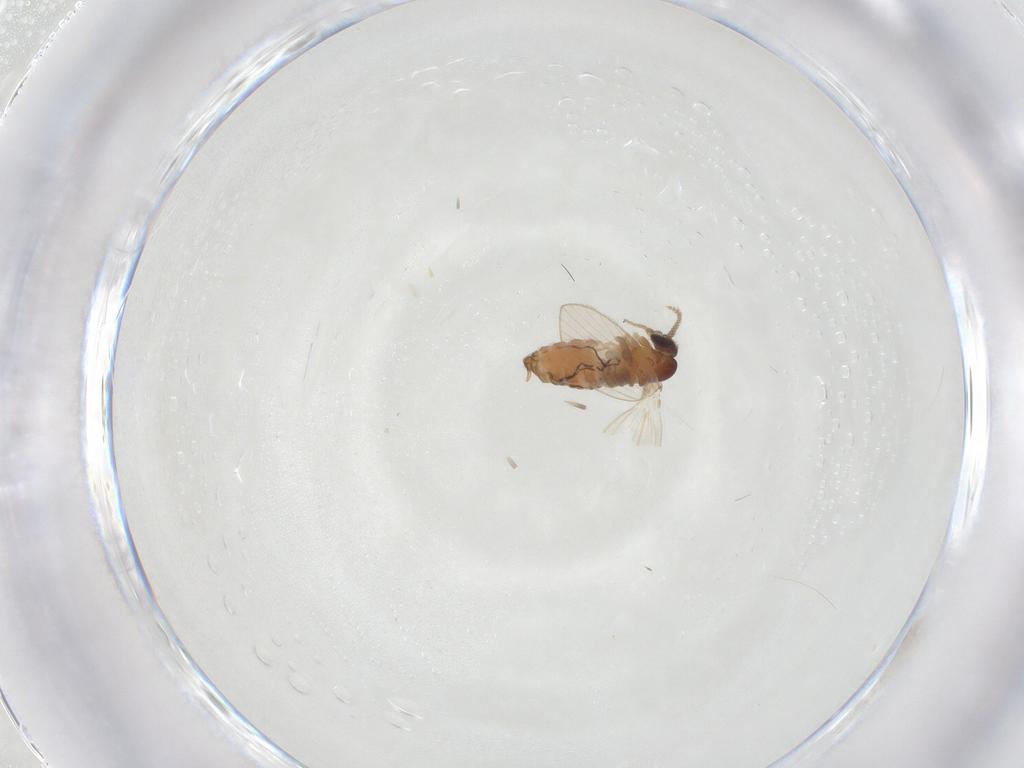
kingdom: Animalia
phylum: Arthropoda
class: Insecta
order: Diptera
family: Psychodidae
